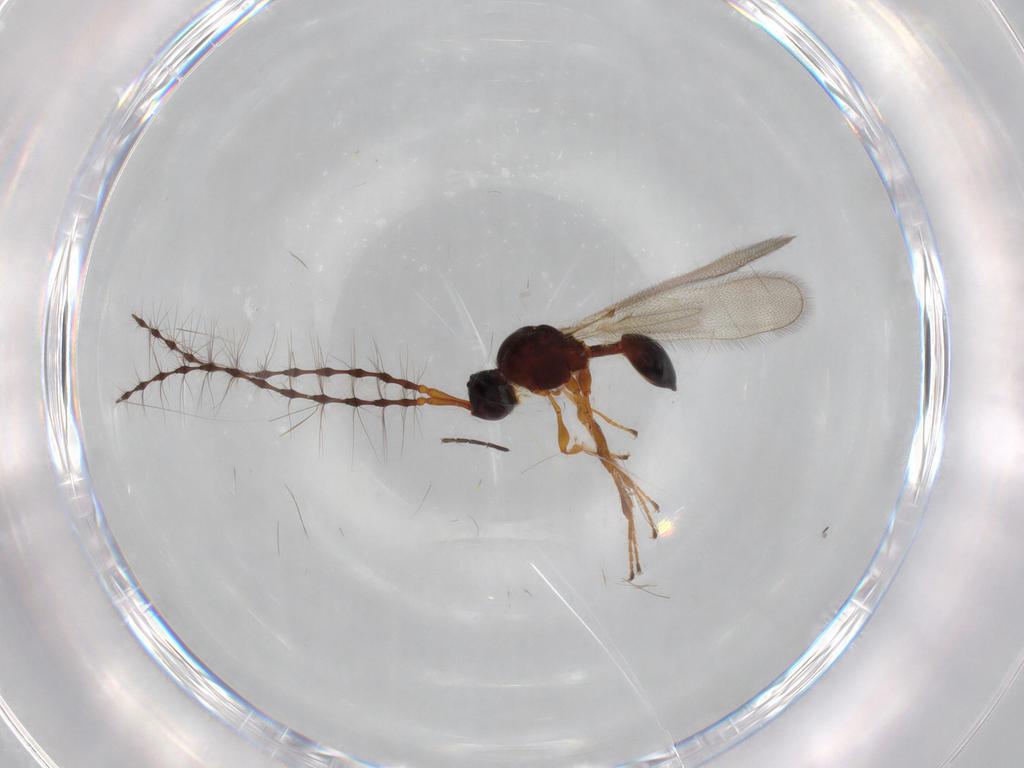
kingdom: Animalia
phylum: Arthropoda
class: Insecta
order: Hymenoptera
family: Diapriidae
